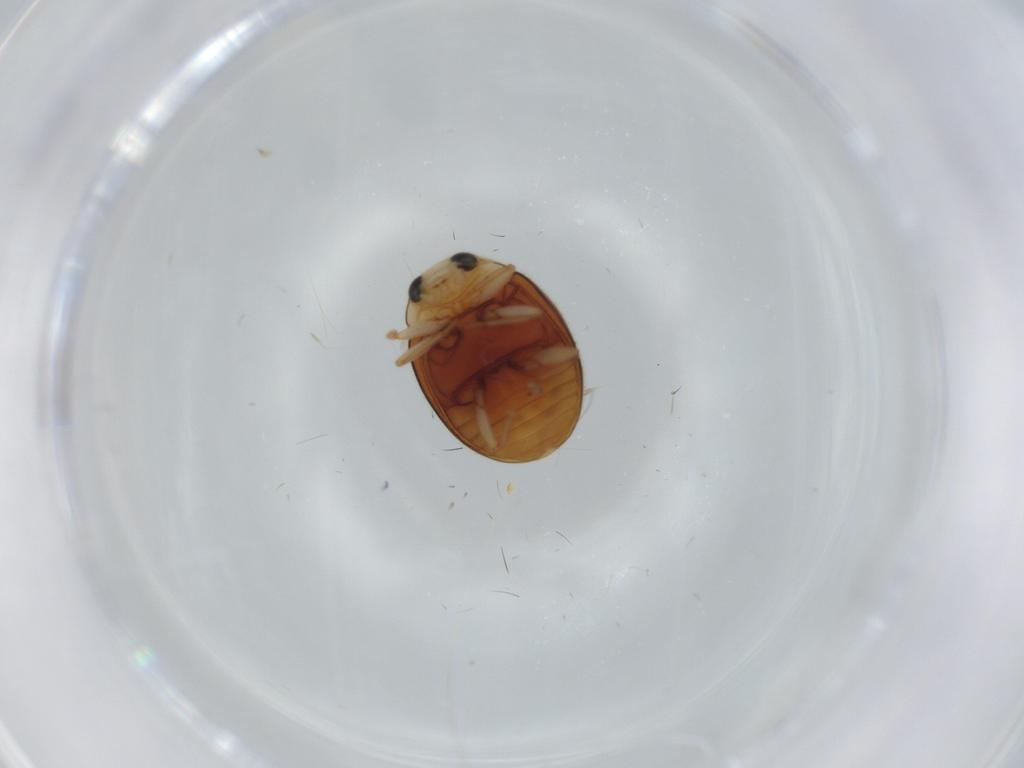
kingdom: Animalia
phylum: Arthropoda
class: Insecta
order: Coleoptera
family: Coccinellidae
